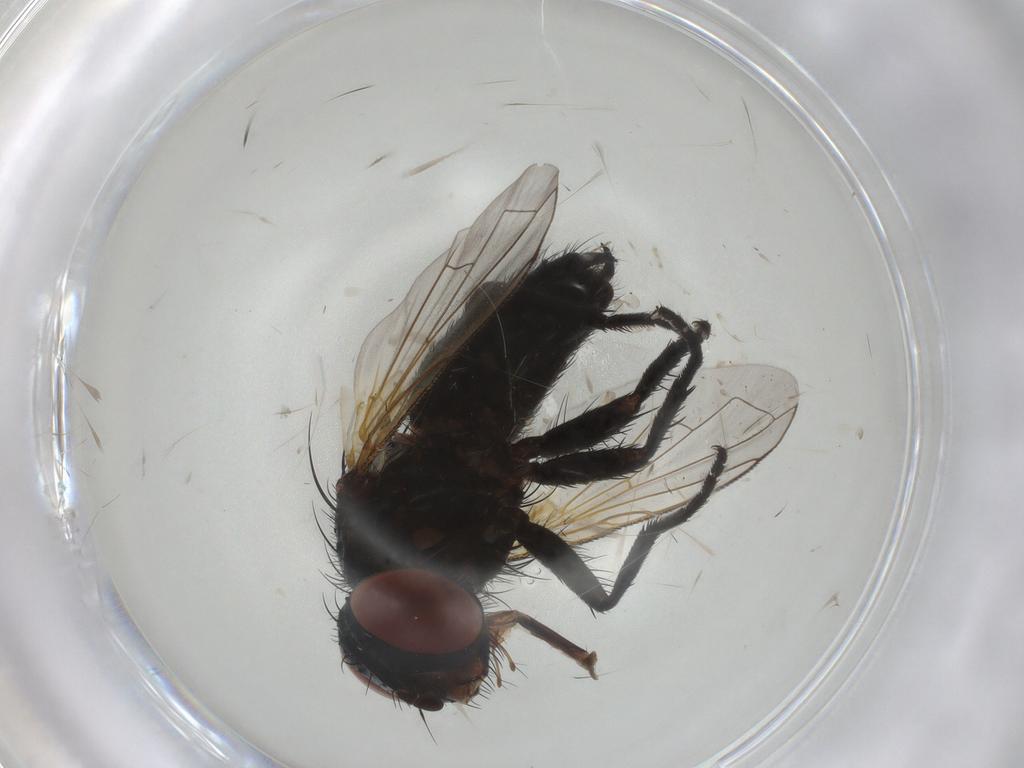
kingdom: Animalia
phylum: Arthropoda
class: Insecta
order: Diptera
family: Tachinidae
